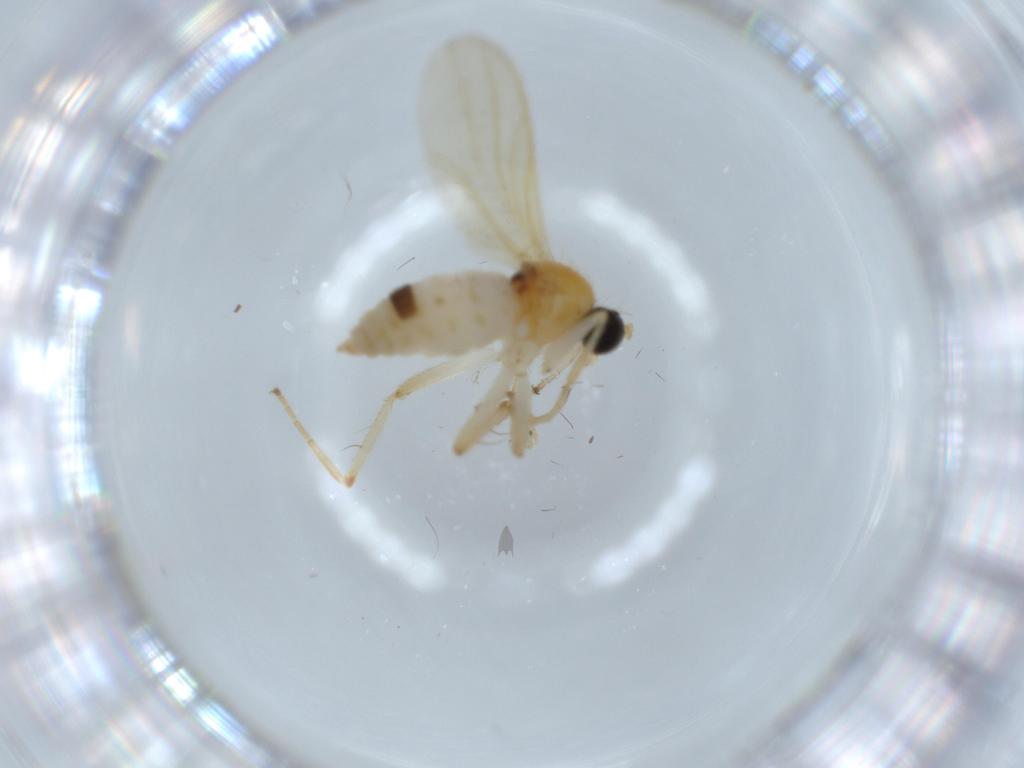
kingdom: Animalia
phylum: Arthropoda
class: Insecta
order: Diptera
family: Hybotidae
